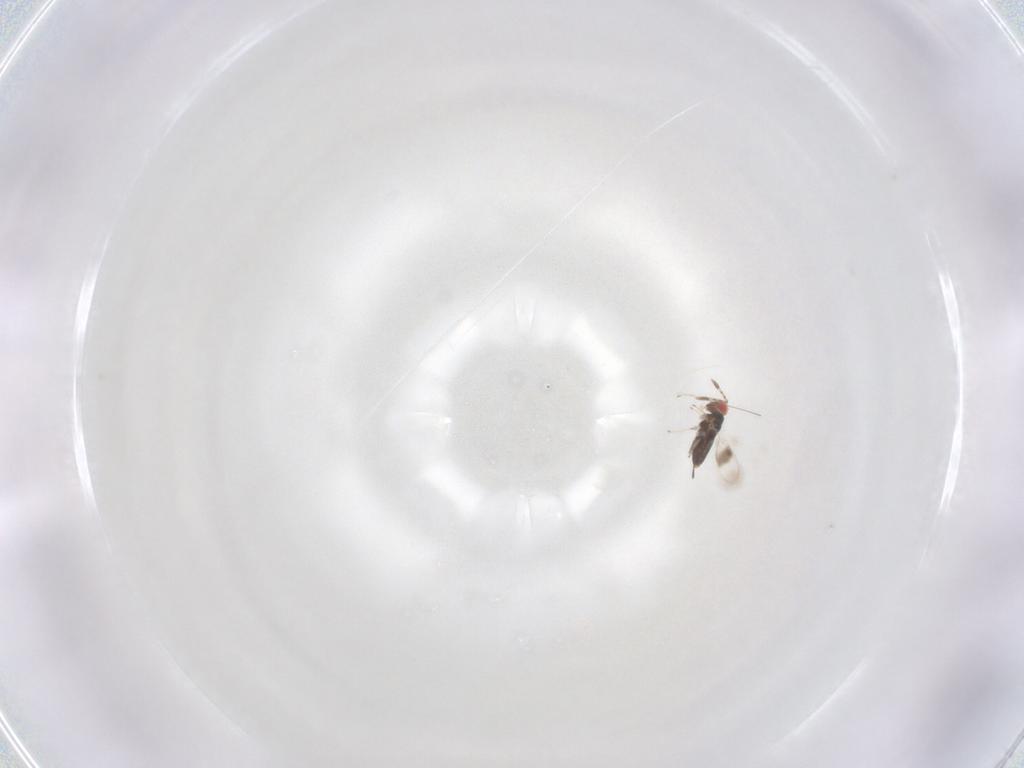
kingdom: Animalia
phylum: Arthropoda
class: Insecta
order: Hymenoptera
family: Azotidae
